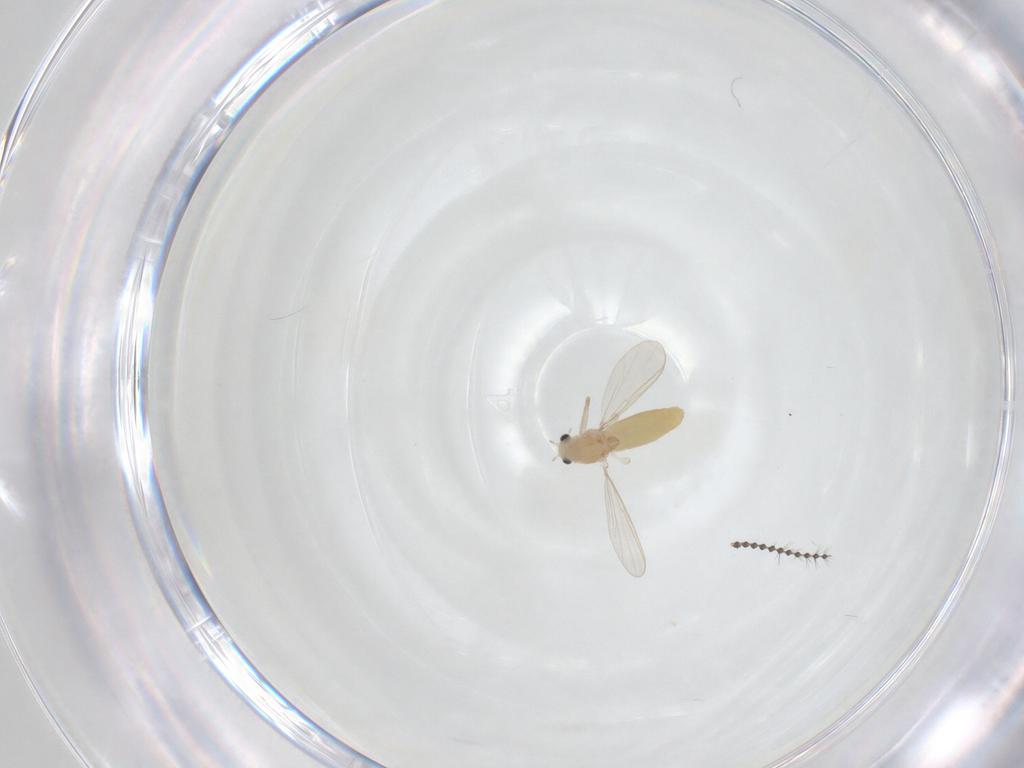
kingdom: Animalia
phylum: Arthropoda
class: Insecta
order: Diptera
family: Sciaridae
